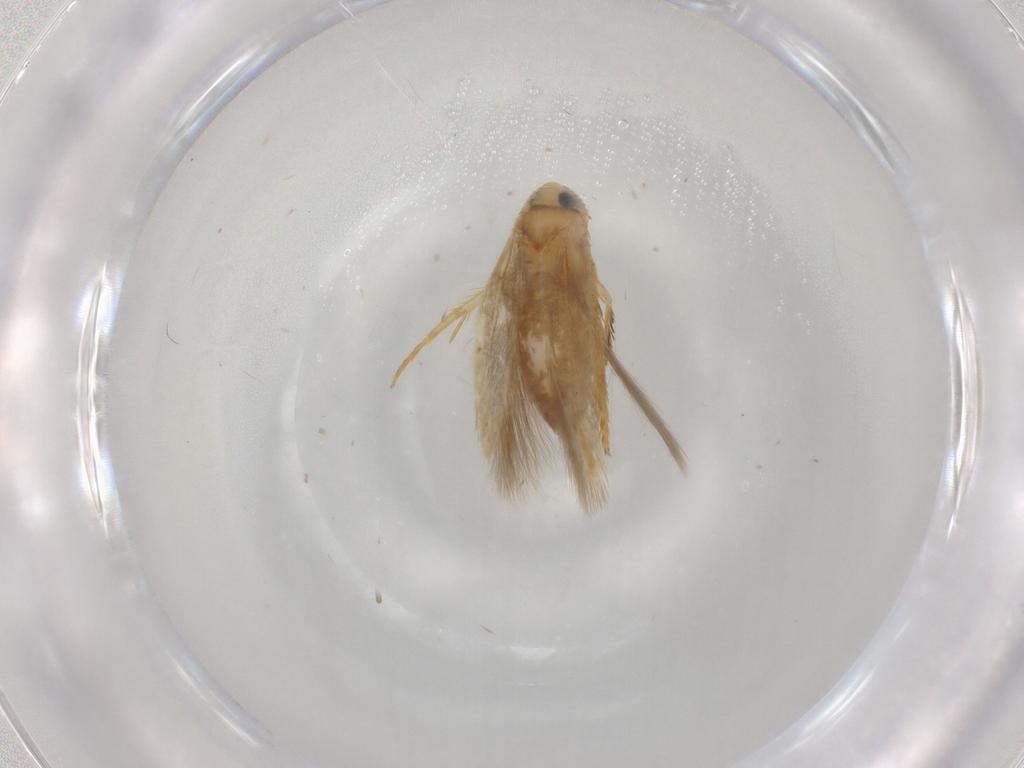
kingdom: Animalia
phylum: Arthropoda
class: Insecta
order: Lepidoptera
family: Opostegidae
